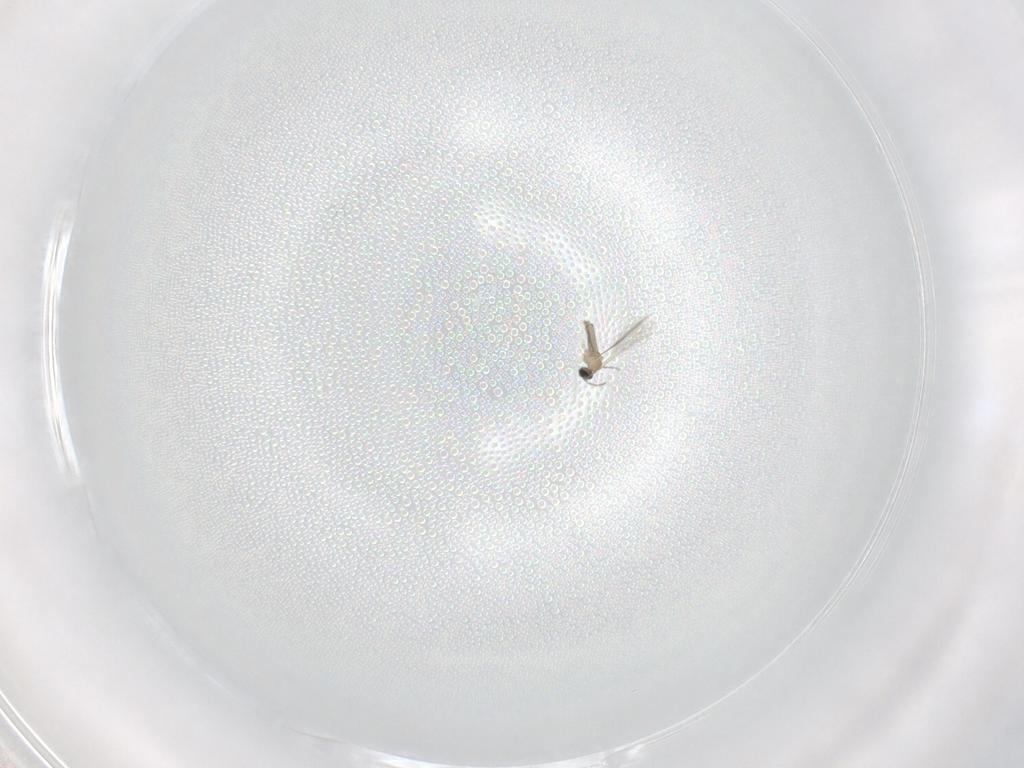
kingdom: Animalia
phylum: Arthropoda
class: Insecta
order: Diptera
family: Cecidomyiidae
